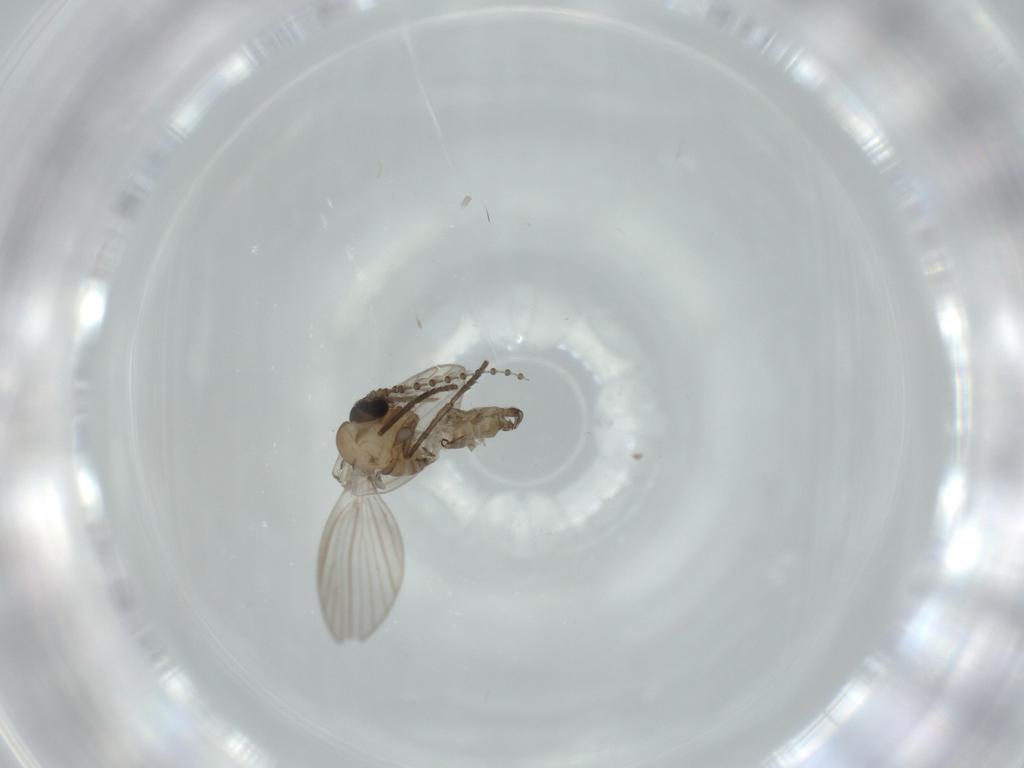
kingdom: Animalia
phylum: Arthropoda
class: Insecta
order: Diptera
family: Psychodidae
